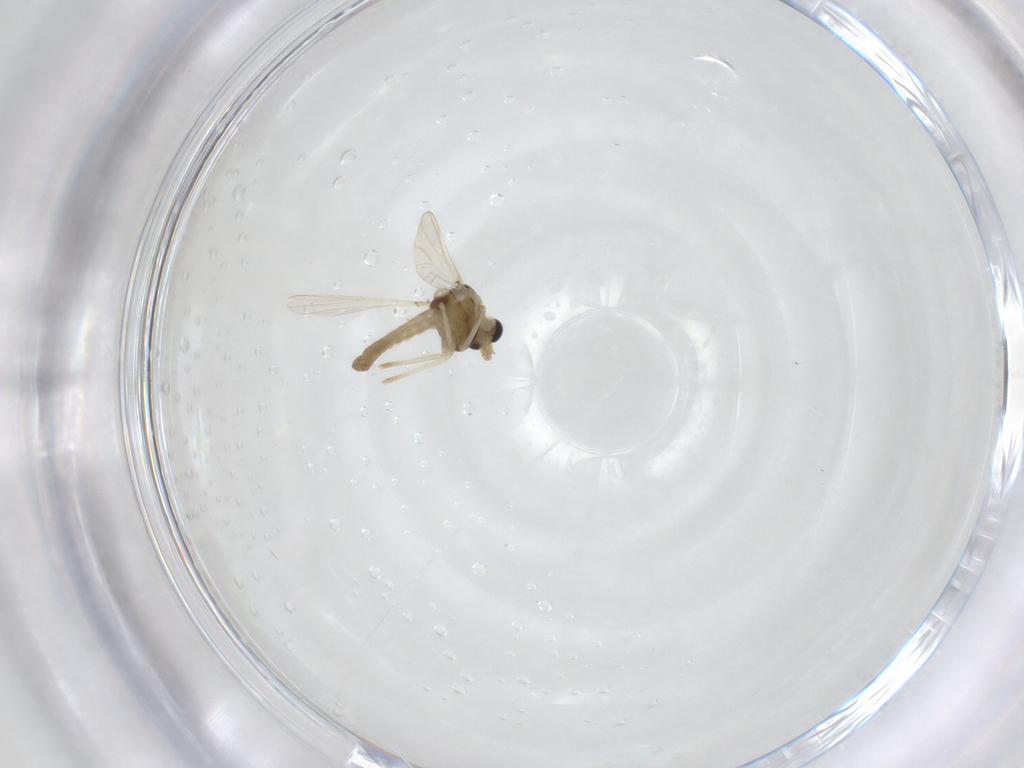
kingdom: Animalia
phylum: Arthropoda
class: Insecta
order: Diptera
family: Chironomidae
